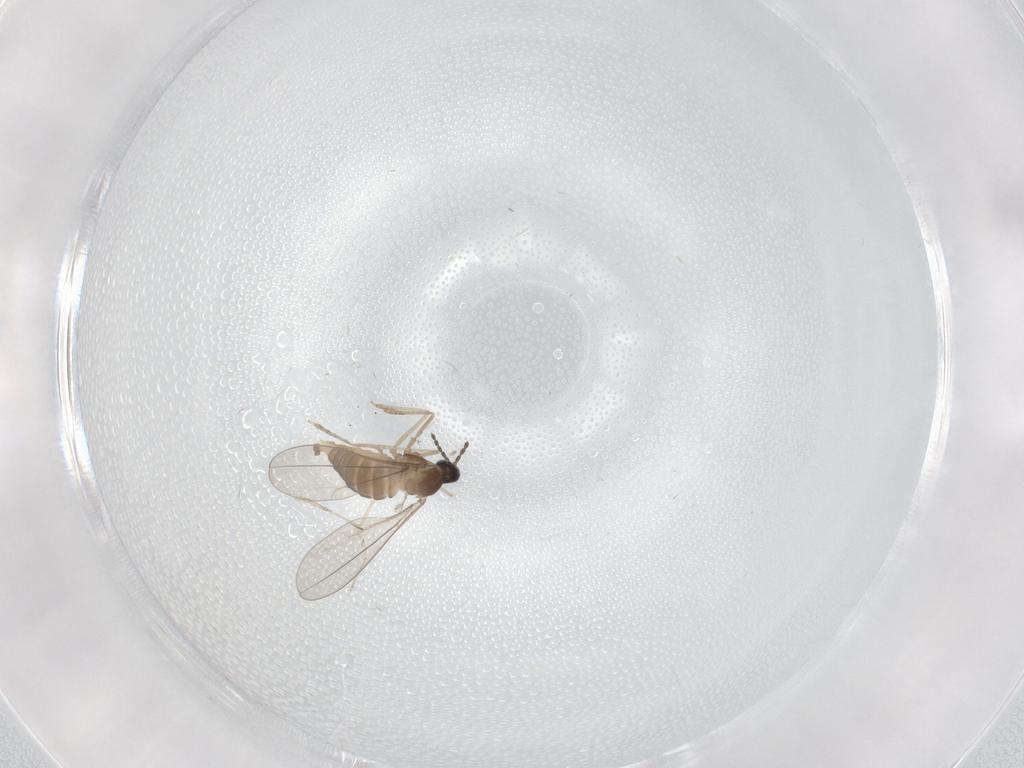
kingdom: Animalia
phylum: Arthropoda
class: Insecta
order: Diptera
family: Cecidomyiidae
